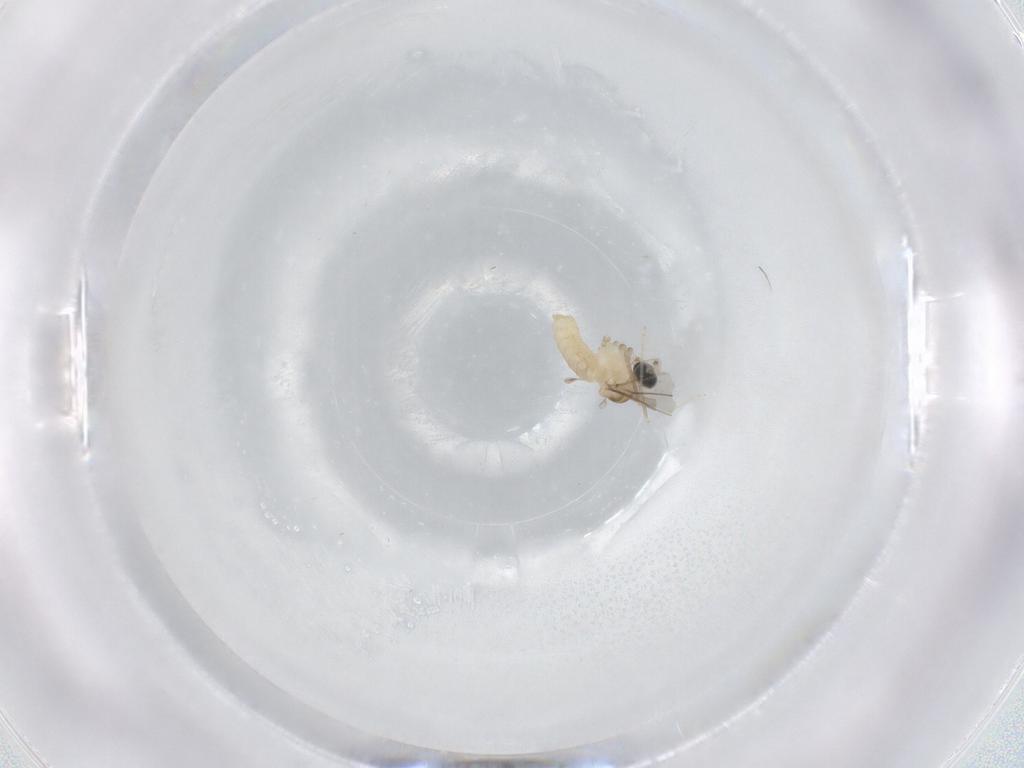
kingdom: Animalia
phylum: Arthropoda
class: Insecta
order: Diptera
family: Cecidomyiidae
